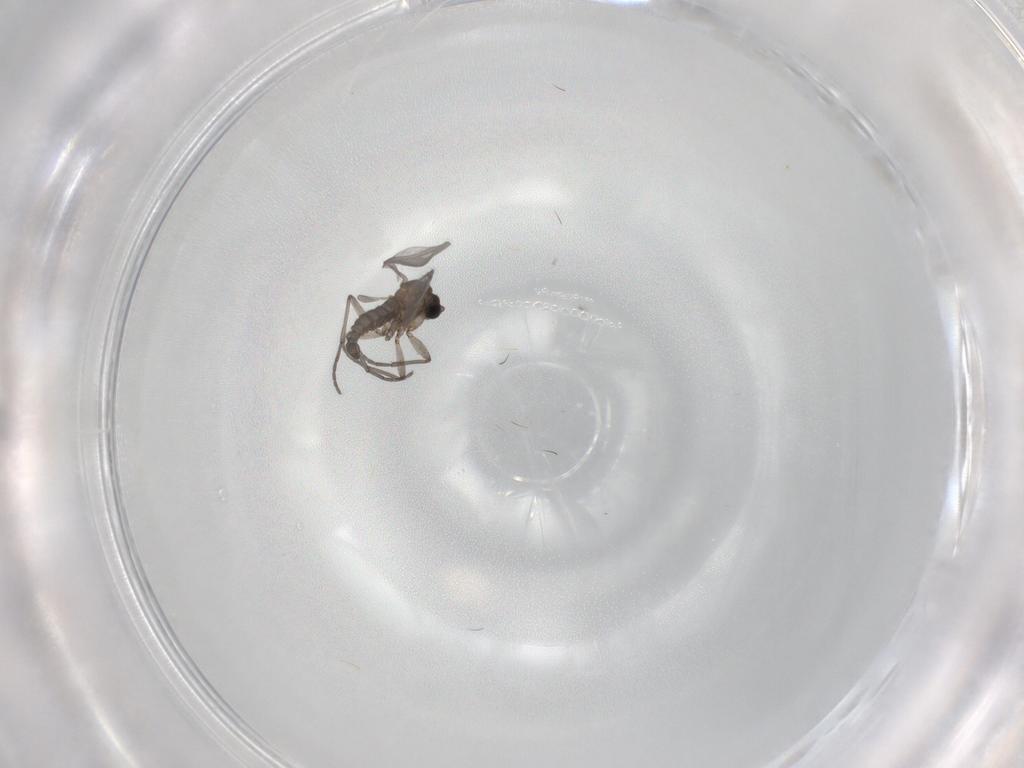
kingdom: Animalia
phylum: Arthropoda
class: Insecta
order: Diptera
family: Sciaridae
